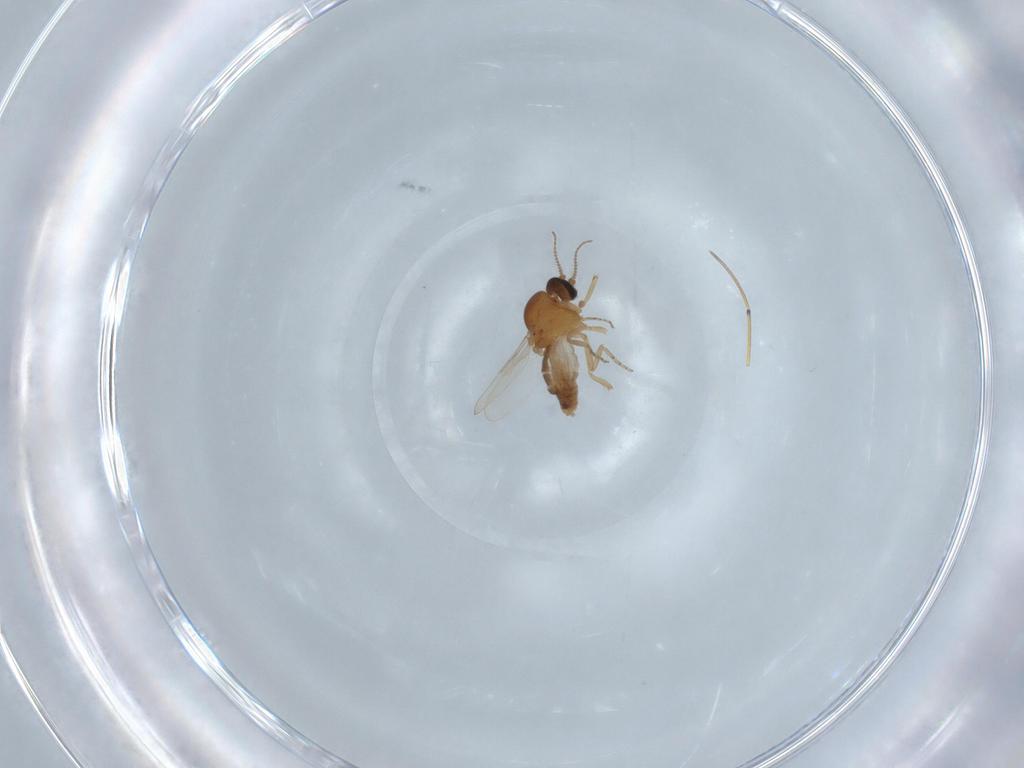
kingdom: Animalia
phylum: Arthropoda
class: Insecta
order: Diptera
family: Ceratopogonidae
